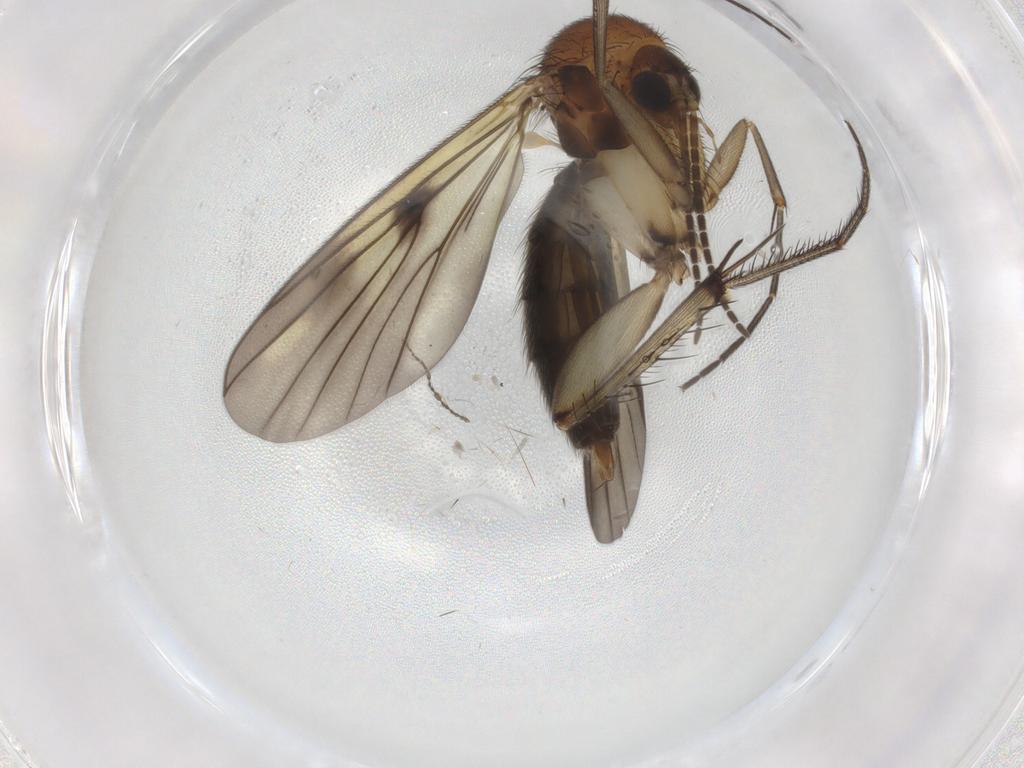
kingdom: Animalia
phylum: Arthropoda
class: Insecta
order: Diptera
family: Mycetophilidae
